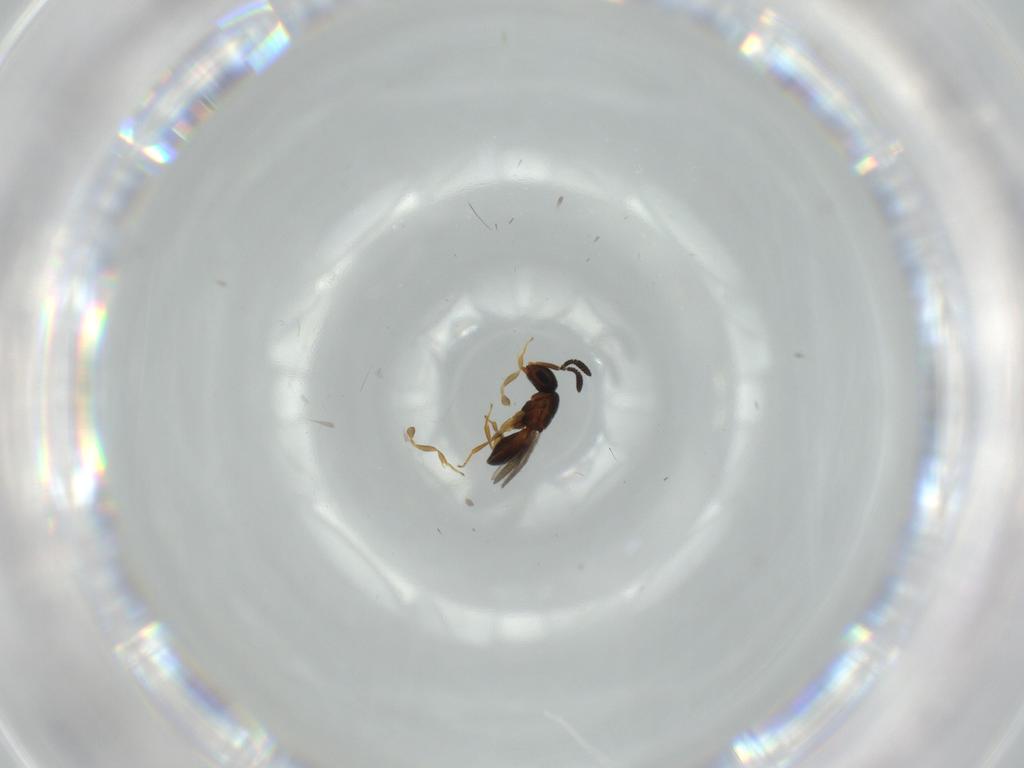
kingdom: Animalia
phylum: Arthropoda
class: Insecta
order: Hymenoptera
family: Scelionidae
